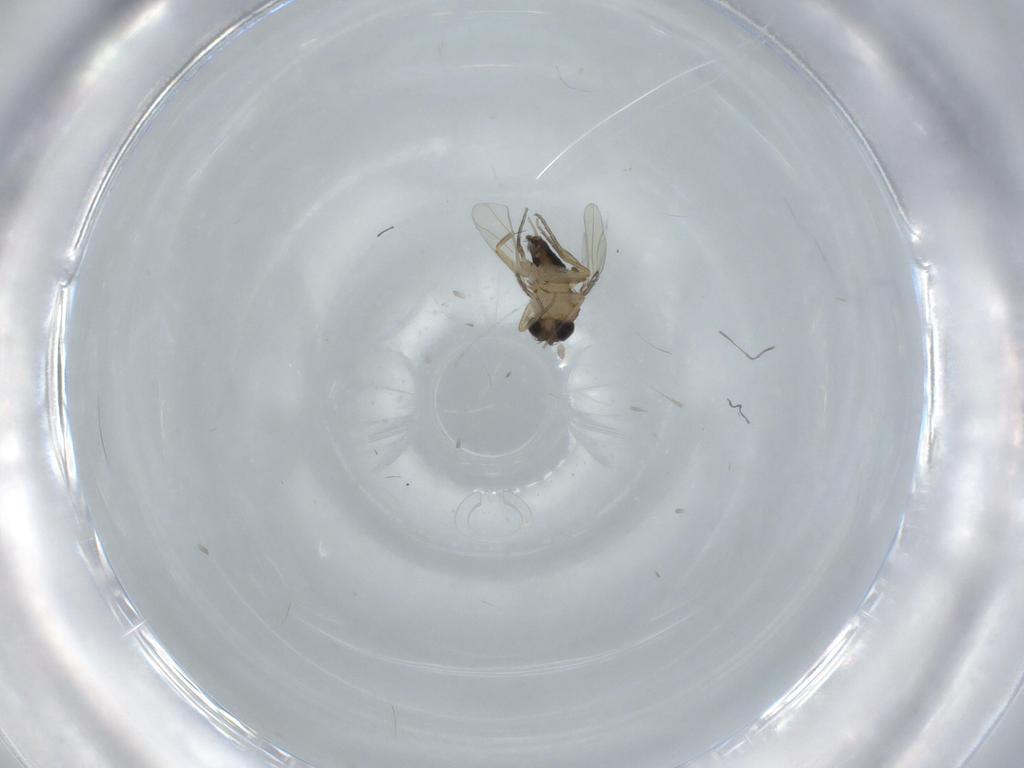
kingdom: Animalia
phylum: Arthropoda
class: Insecta
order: Diptera
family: Phoridae
